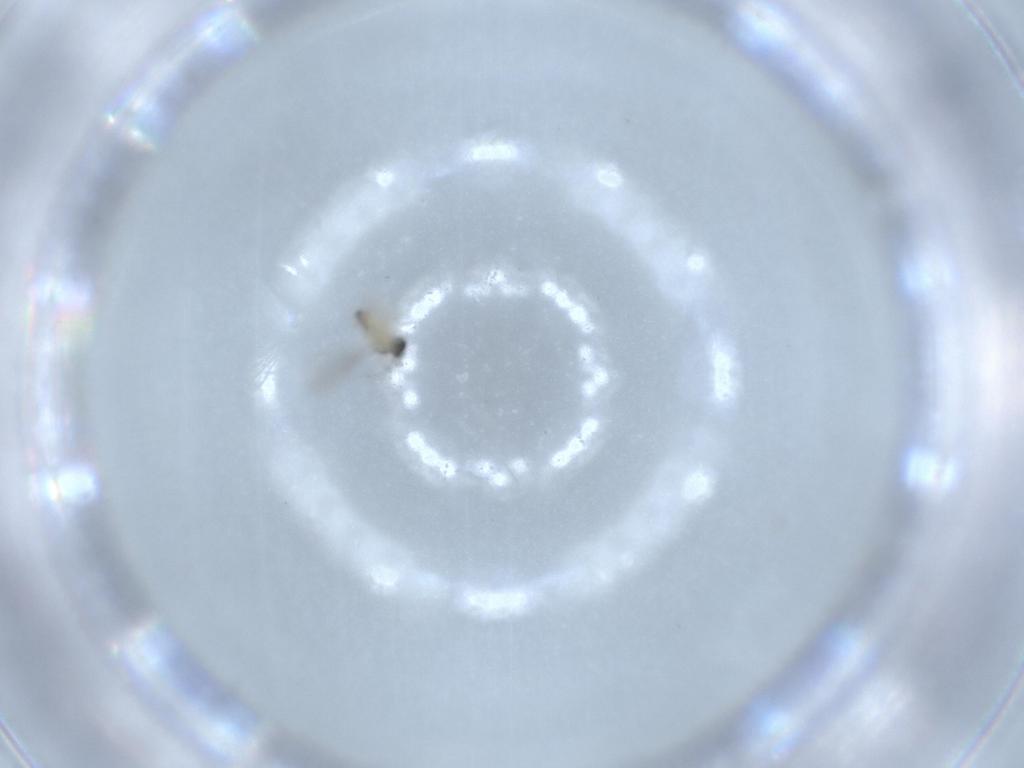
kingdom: Animalia
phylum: Arthropoda
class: Insecta
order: Diptera
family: Cecidomyiidae
